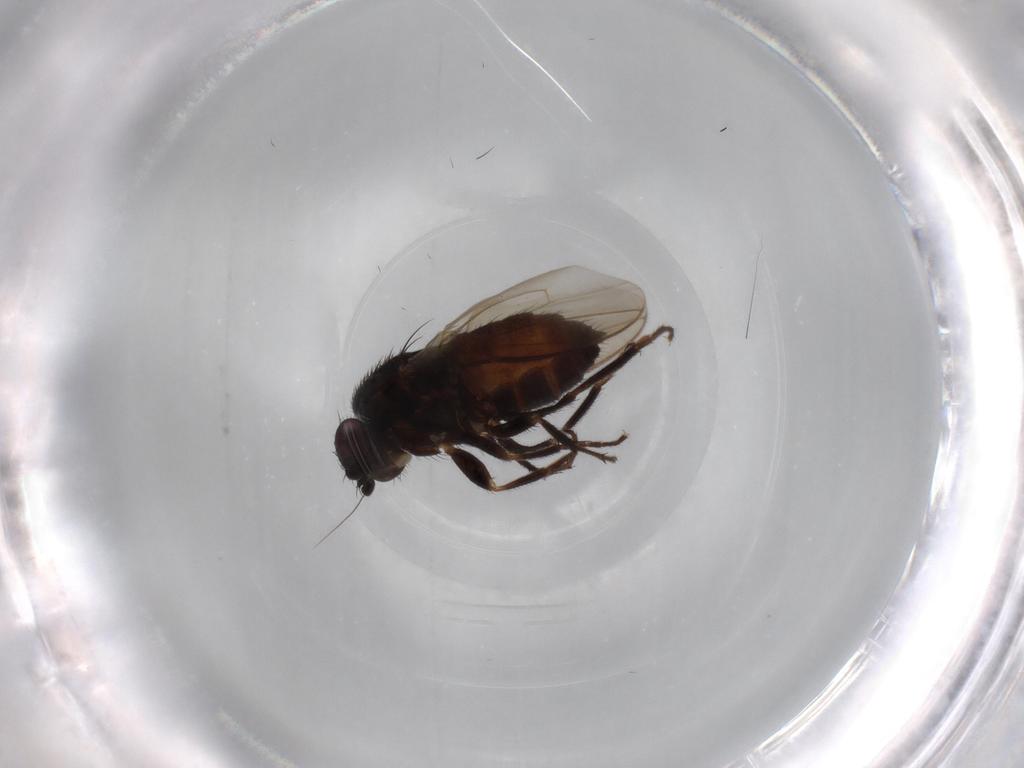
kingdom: Animalia
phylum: Arthropoda
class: Insecta
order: Diptera
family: Sphaeroceridae
